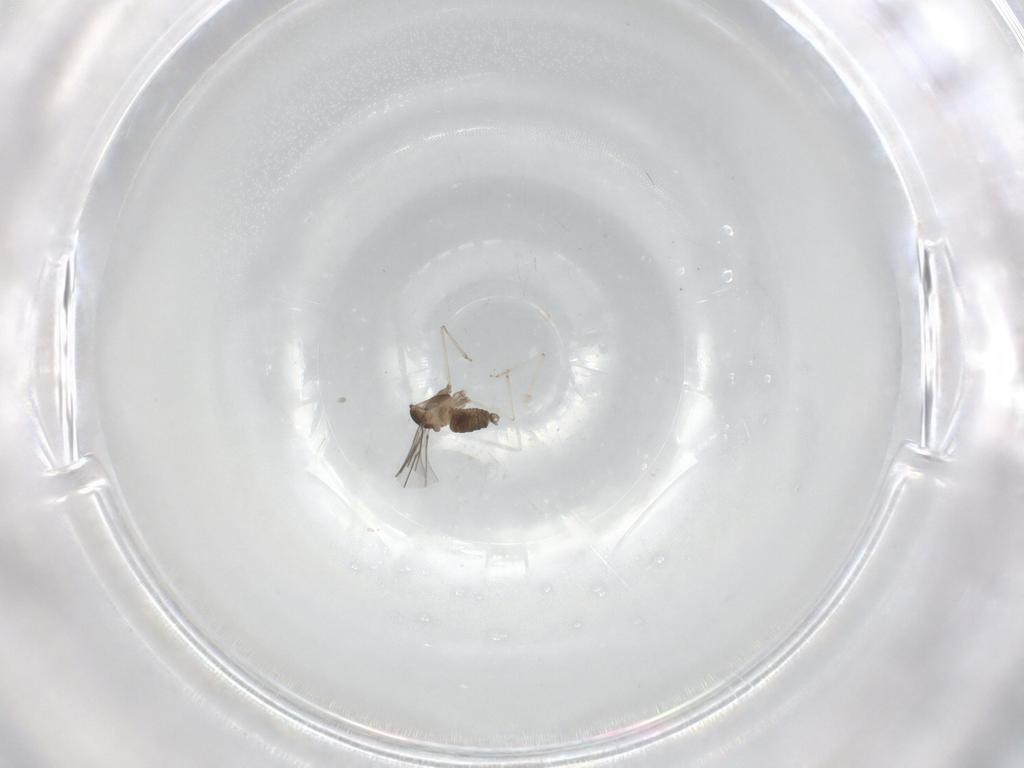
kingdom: Animalia
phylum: Arthropoda
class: Insecta
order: Diptera
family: Cecidomyiidae
